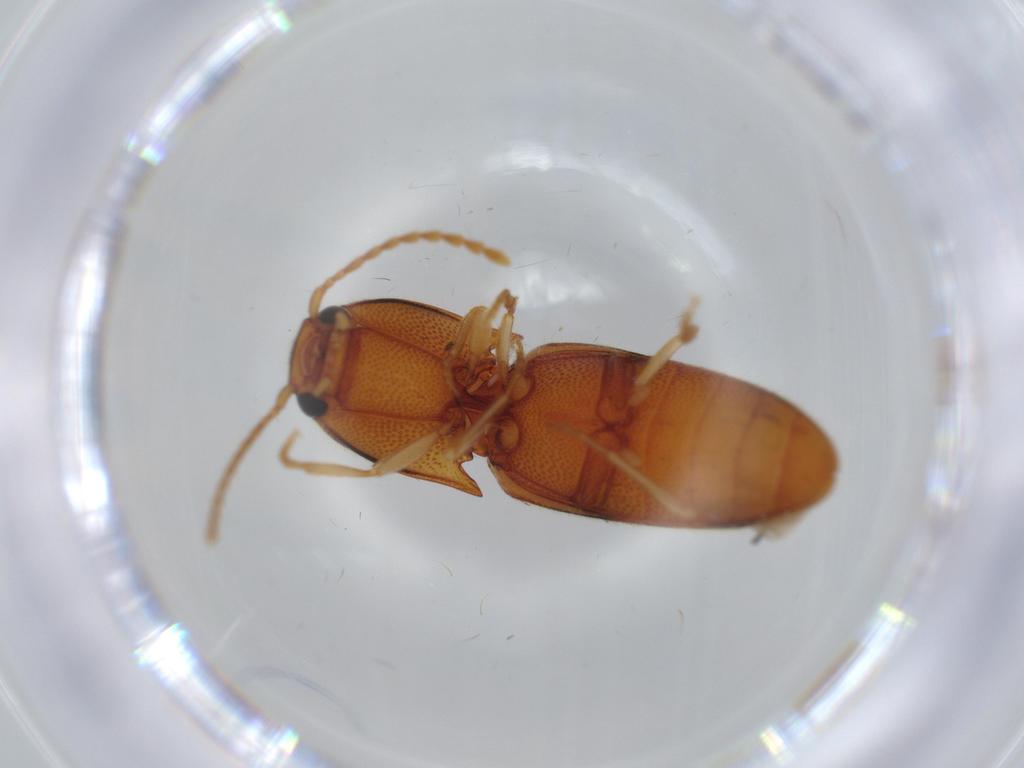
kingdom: Animalia
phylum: Arthropoda
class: Insecta
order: Coleoptera
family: Elateridae
